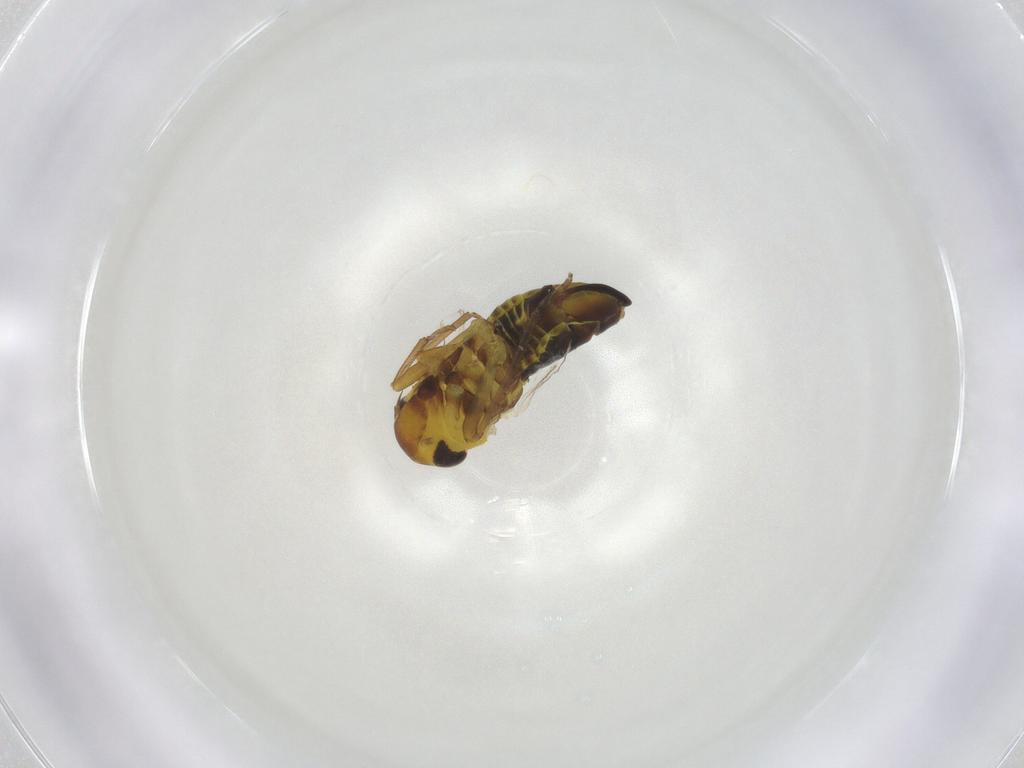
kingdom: Animalia
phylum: Arthropoda
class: Insecta
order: Hemiptera
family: Cicadellidae
